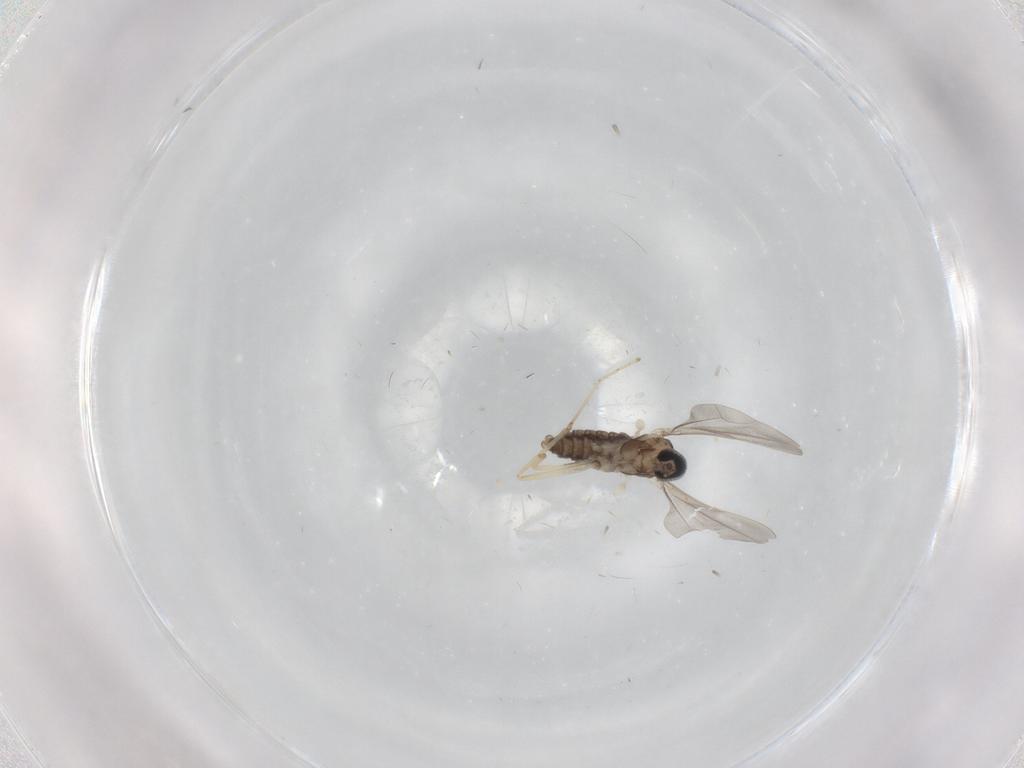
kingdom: Animalia
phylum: Arthropoda
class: Insecta
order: Diptera
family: Cecidomyiidae
